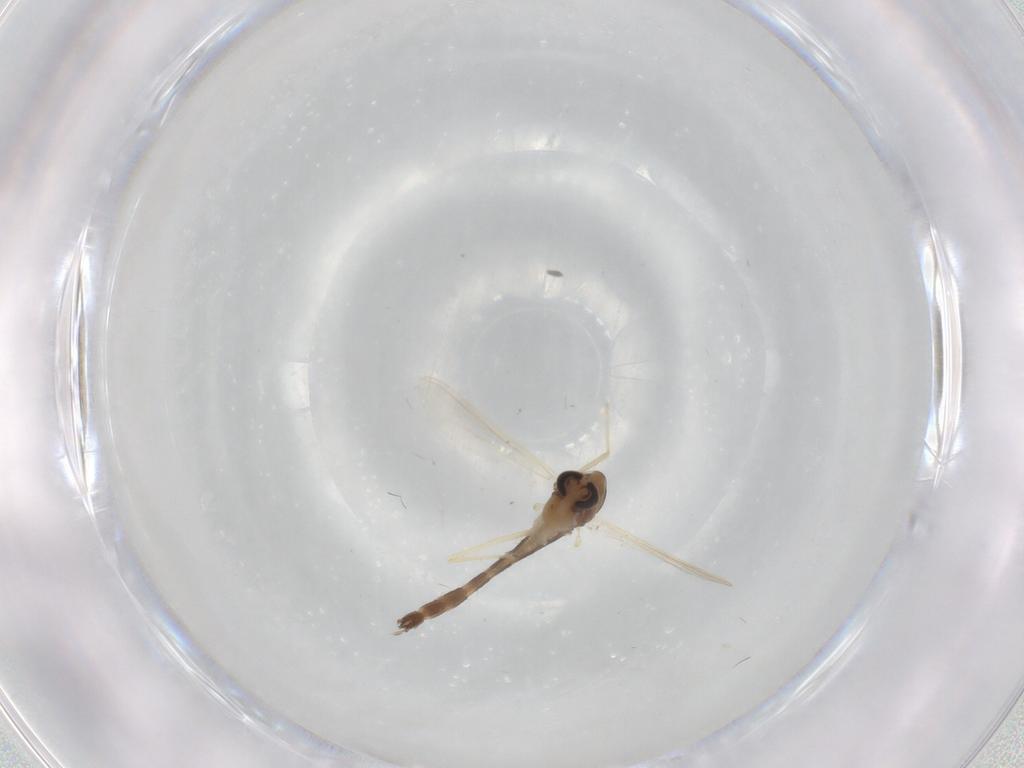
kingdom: Animalia
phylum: Arthropoda
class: Insecta
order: Diptera
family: Chironomidae
